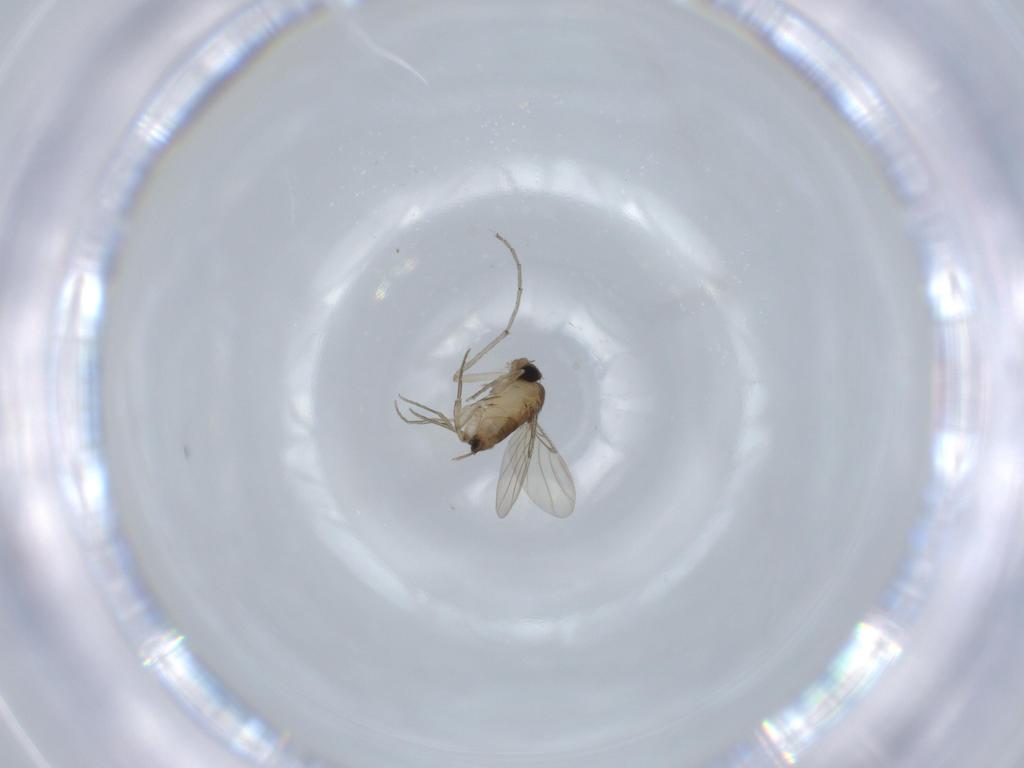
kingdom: Animalia
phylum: Arthropoda
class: Insecta
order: Diptera
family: Phoridae
